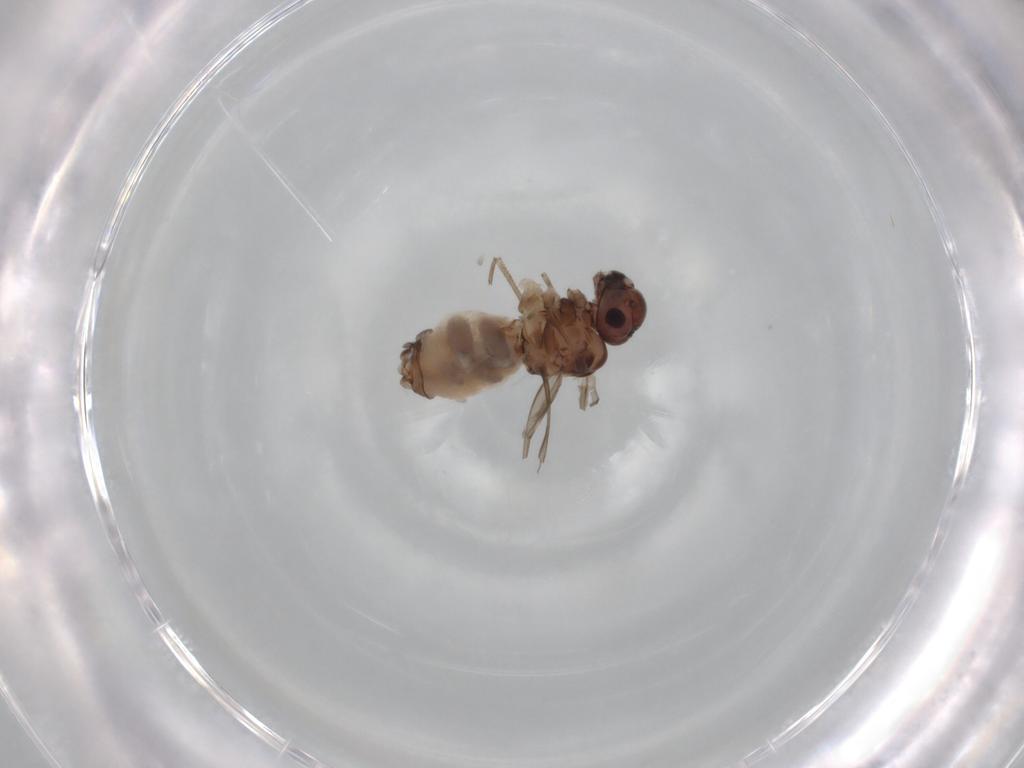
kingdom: Animalia
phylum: Arthropoda
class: Insecta
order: Psocodea
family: Peripsocidae
